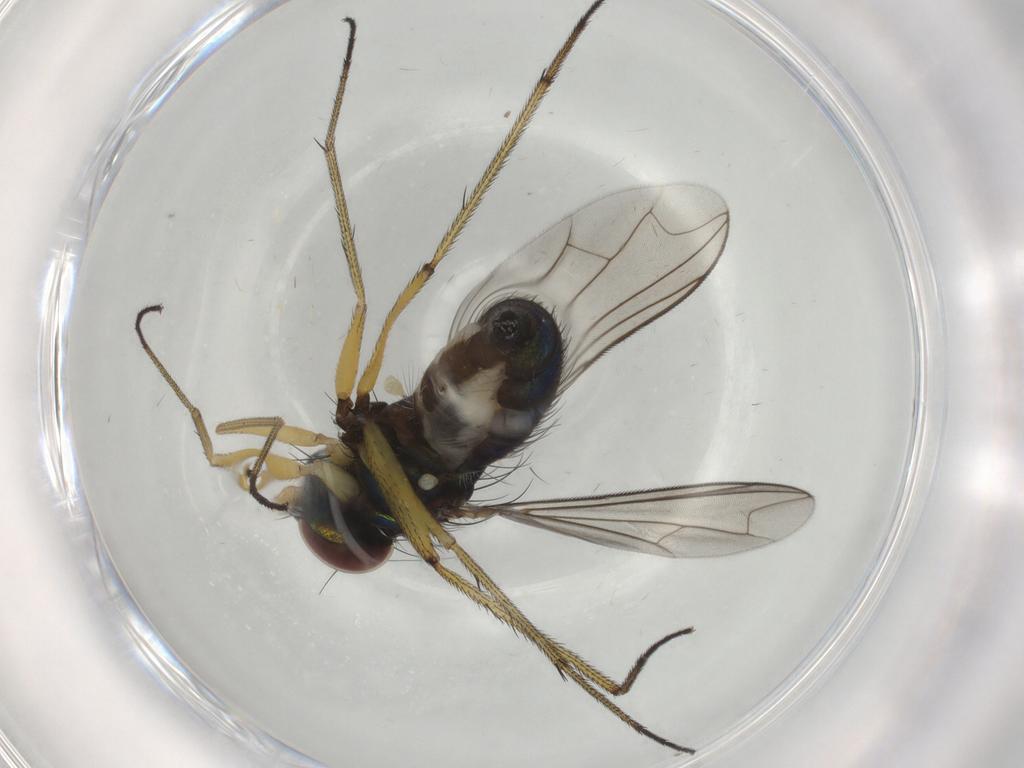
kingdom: Animalia
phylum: Arthropoda
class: Insecta
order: Diptera
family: Dolichopodidae
